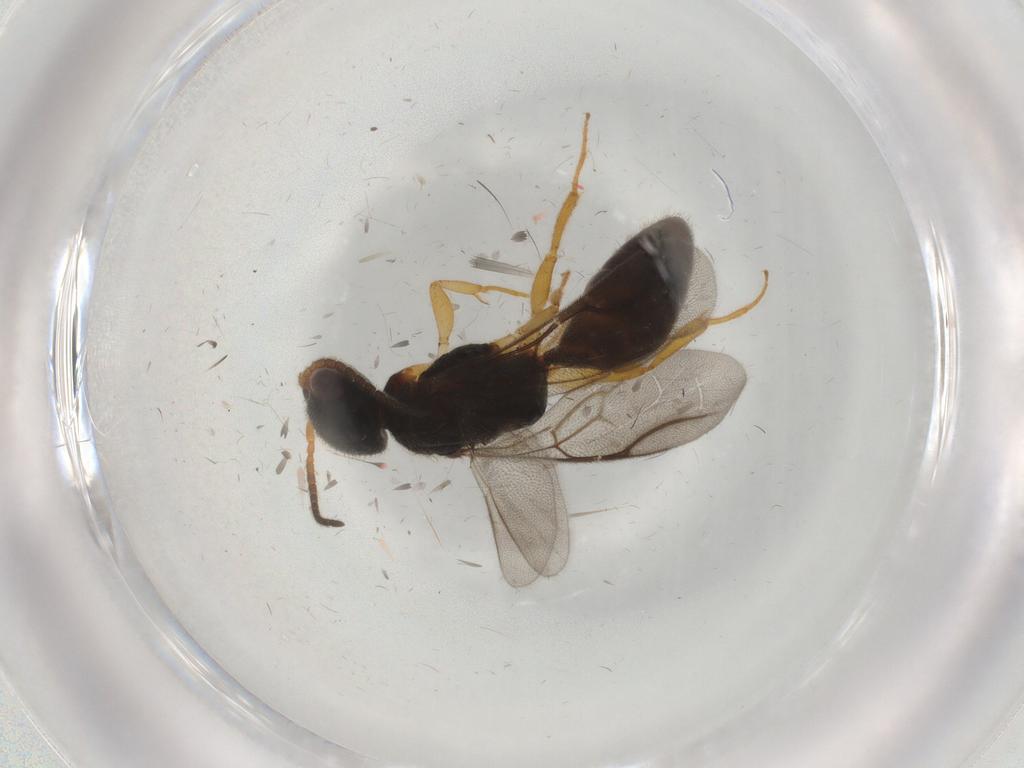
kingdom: Animalia
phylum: Arthropoda
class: Insecta
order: Hymenoptera
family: Bethylidae
